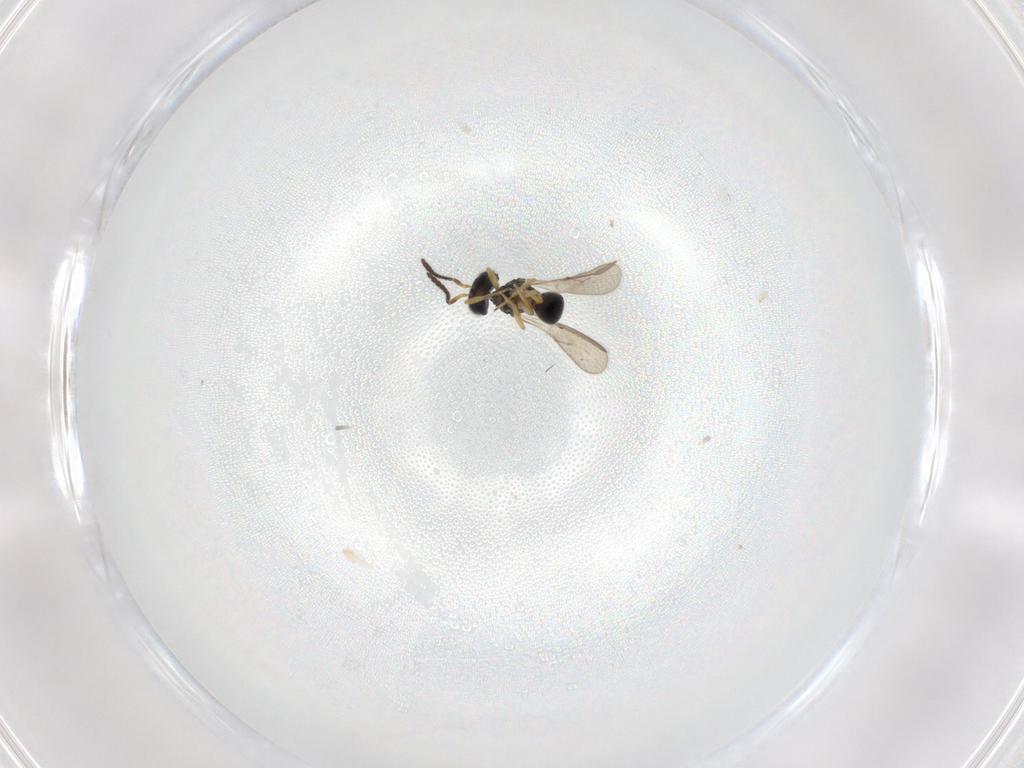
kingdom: Animalia
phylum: Arthropoda
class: Insecta
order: Hymenoptera
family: Scelionidae
